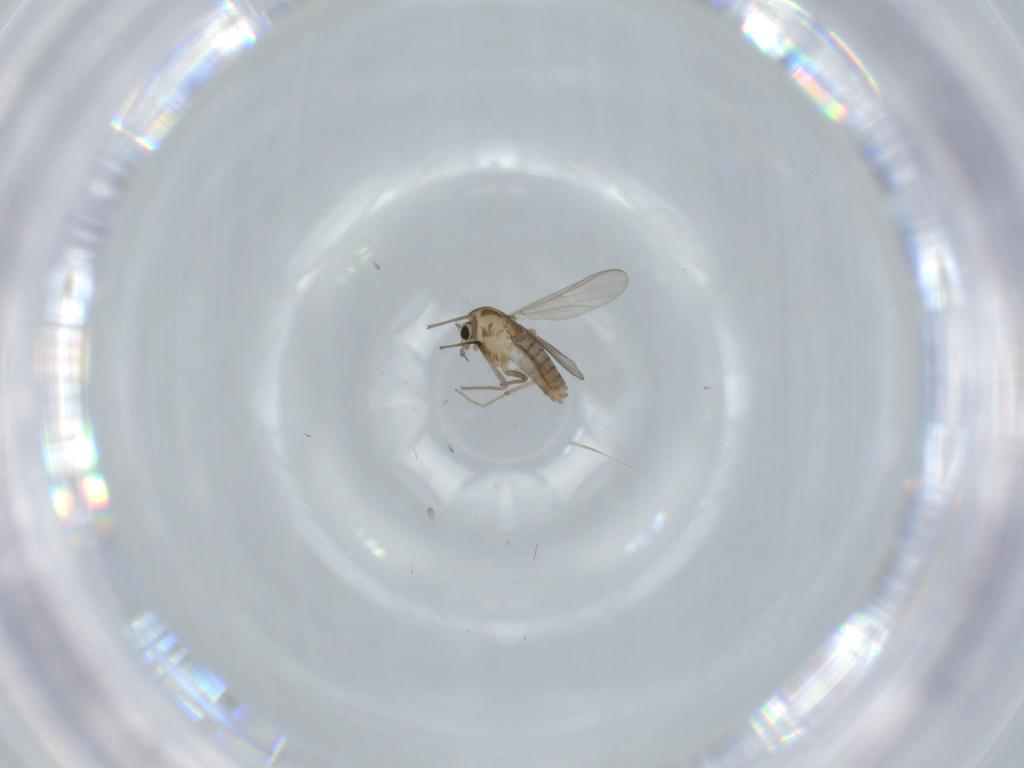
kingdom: Animalia
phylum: Arthropoda
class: Insecta
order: Diptera
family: Chironomidae
